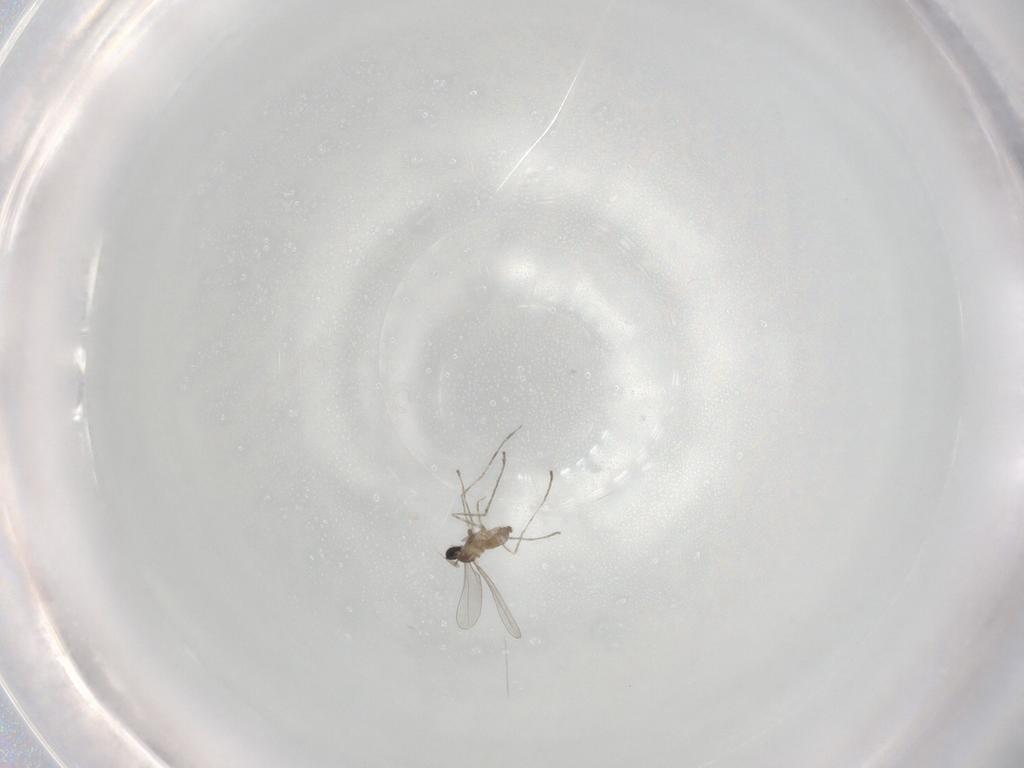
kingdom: Animalia
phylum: Arthropoda
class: Insecta
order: Diptera
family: Cecidomyiidae
